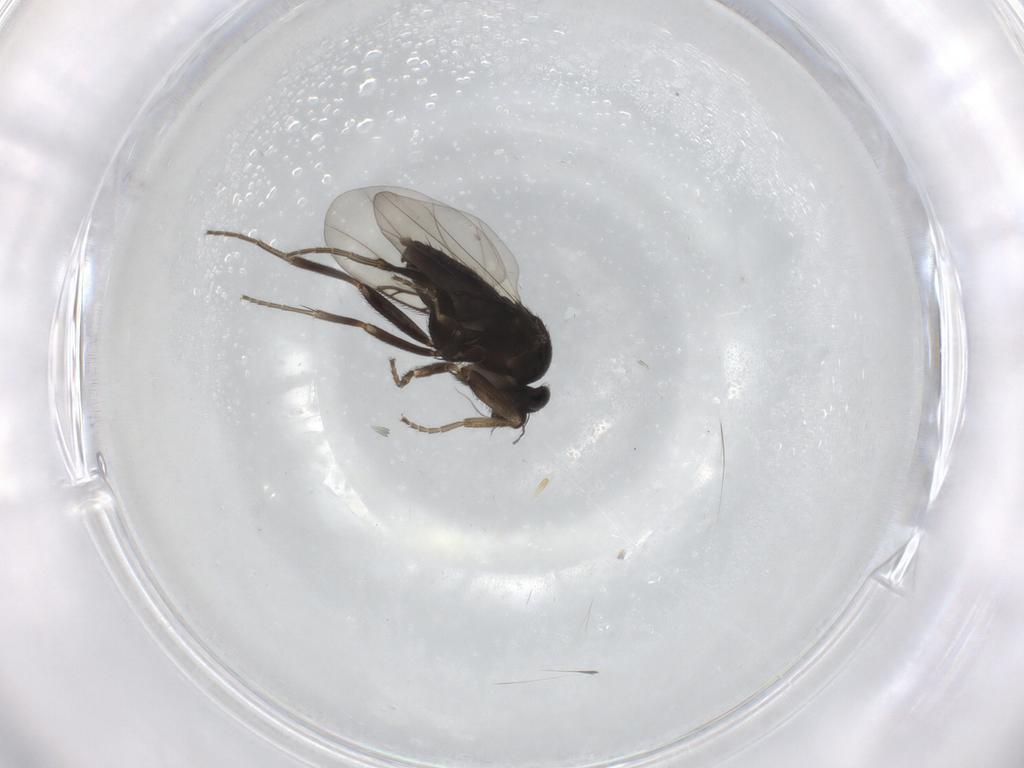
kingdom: Animalia
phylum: Arthropoda
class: Insecta
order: Diptera
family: Phoridae
